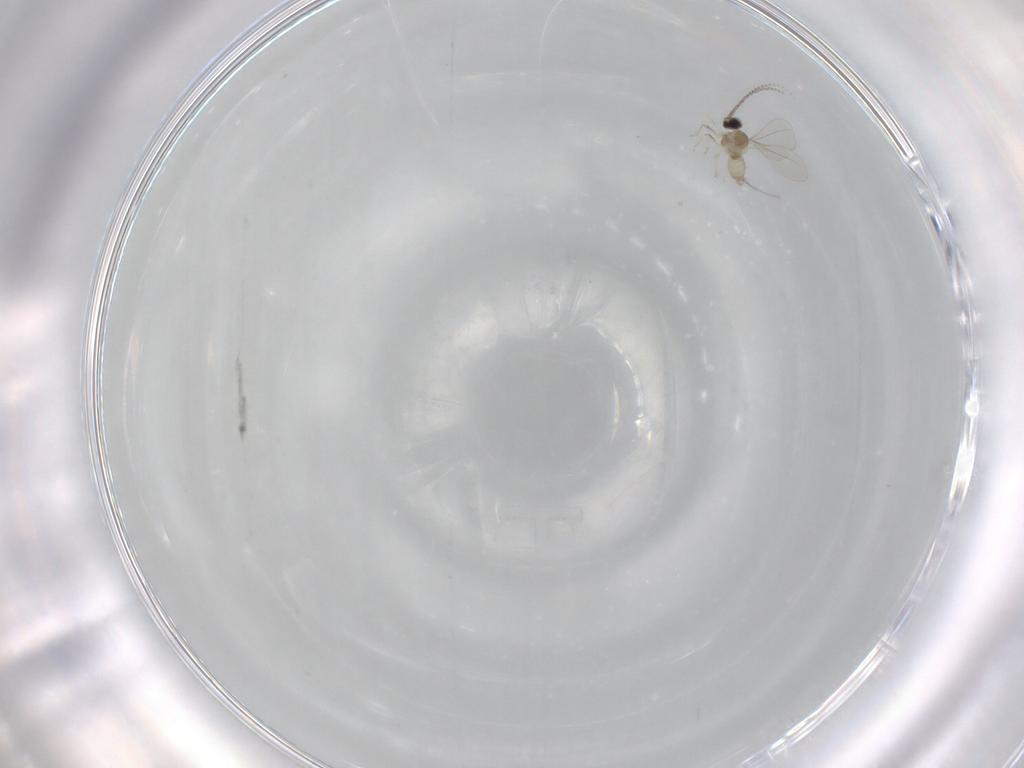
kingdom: Animalia
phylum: Arthropoda
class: Insecta
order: Diptera
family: Cecidomyiidae
